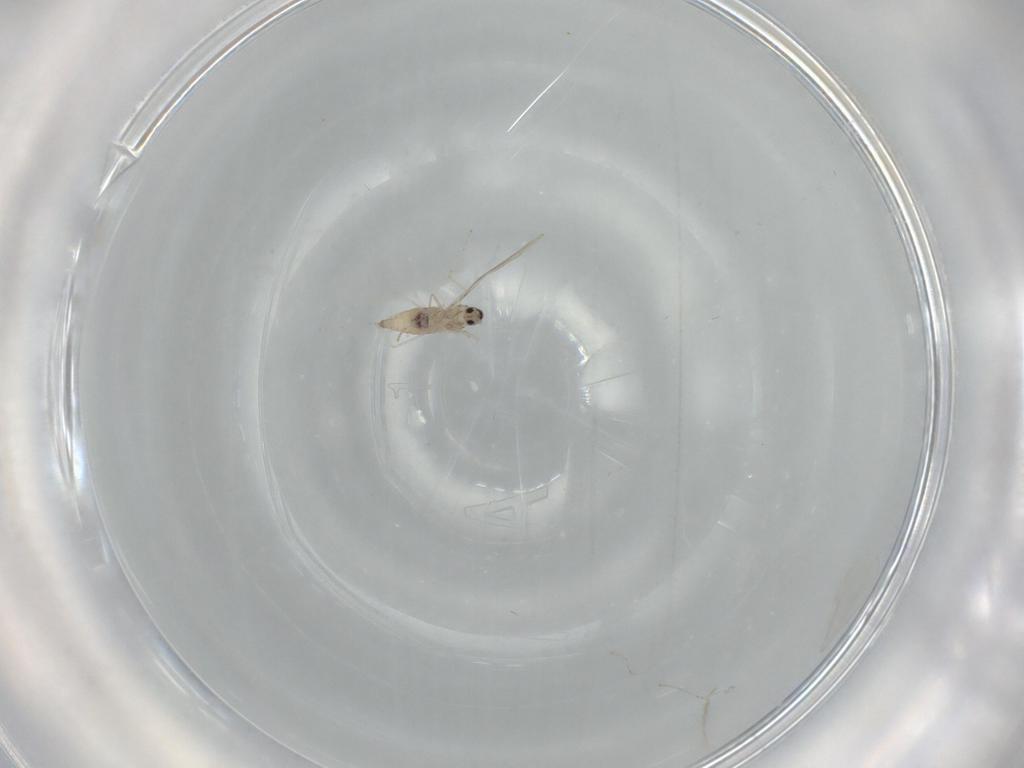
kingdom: Animalia
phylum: Arthropoda
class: Insecta
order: Diptera
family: Cecidomyiidae
